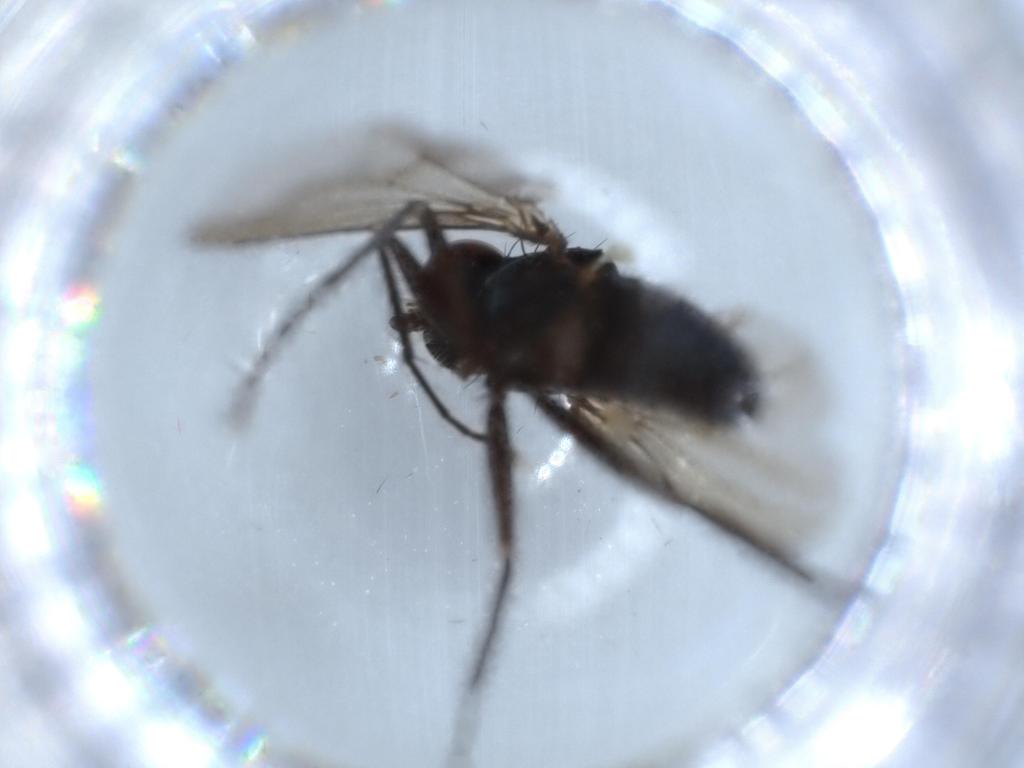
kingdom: Animalia
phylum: Arthropoda
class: Insecta
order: Diptera
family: Dolichopodidae
